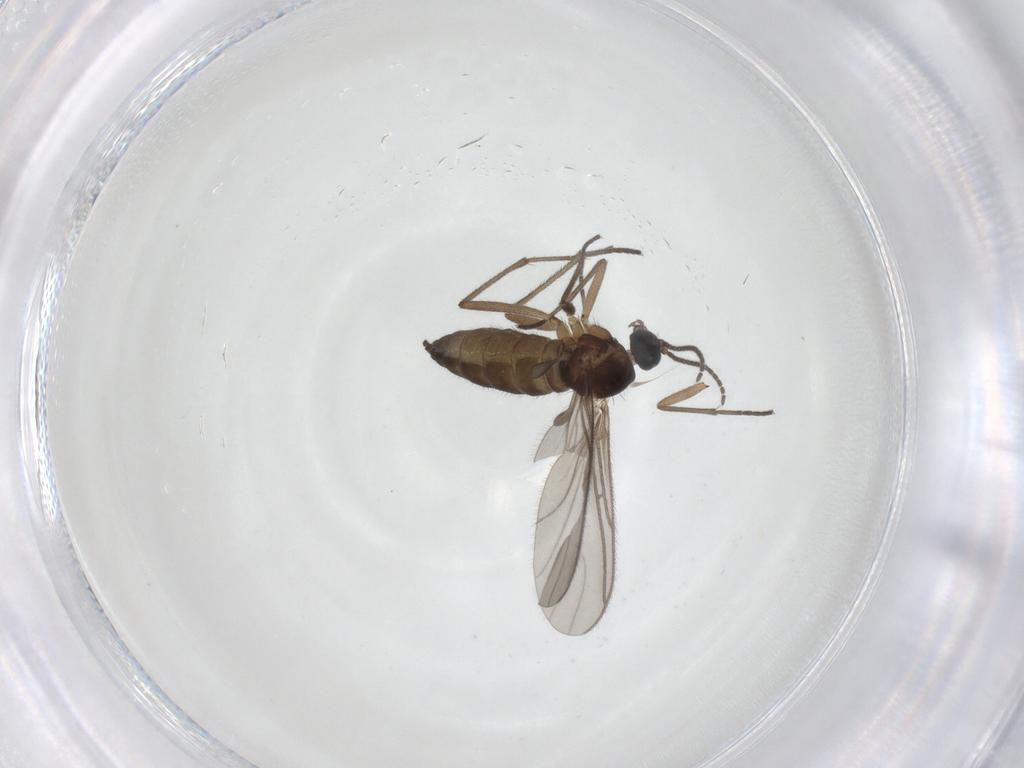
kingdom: Animalia
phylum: Arthropoda
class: Insecta
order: Diptera
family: Sciaridae
